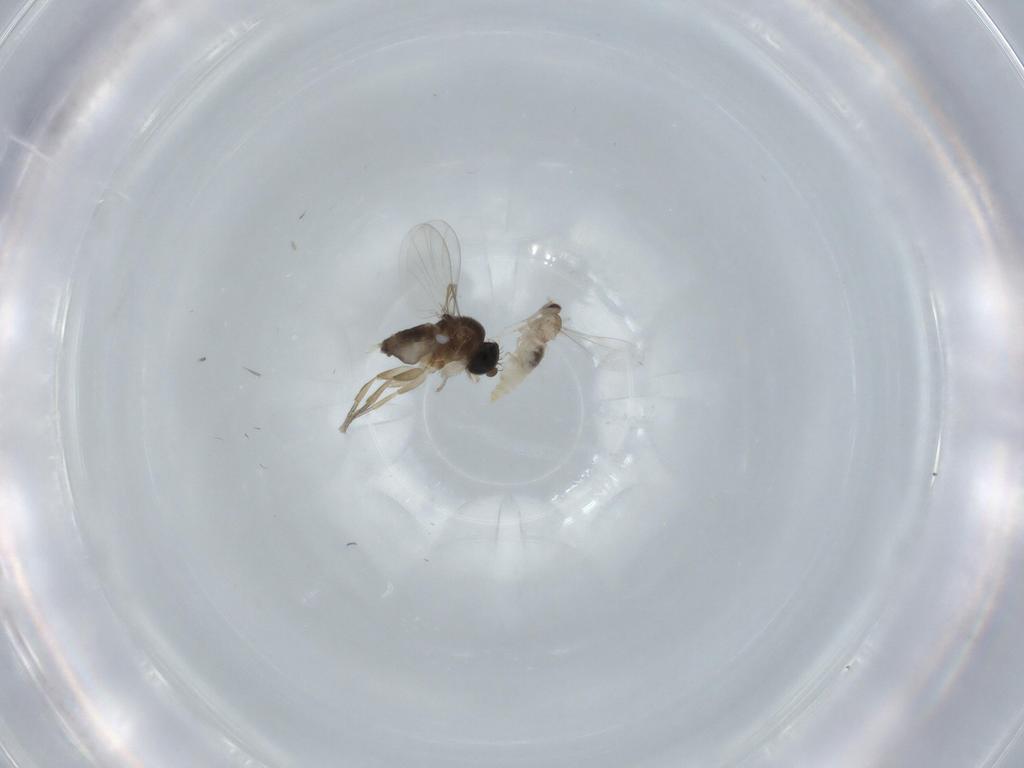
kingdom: Animalia
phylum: Arthropoda
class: Insecta
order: Diptera
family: Phoridae
